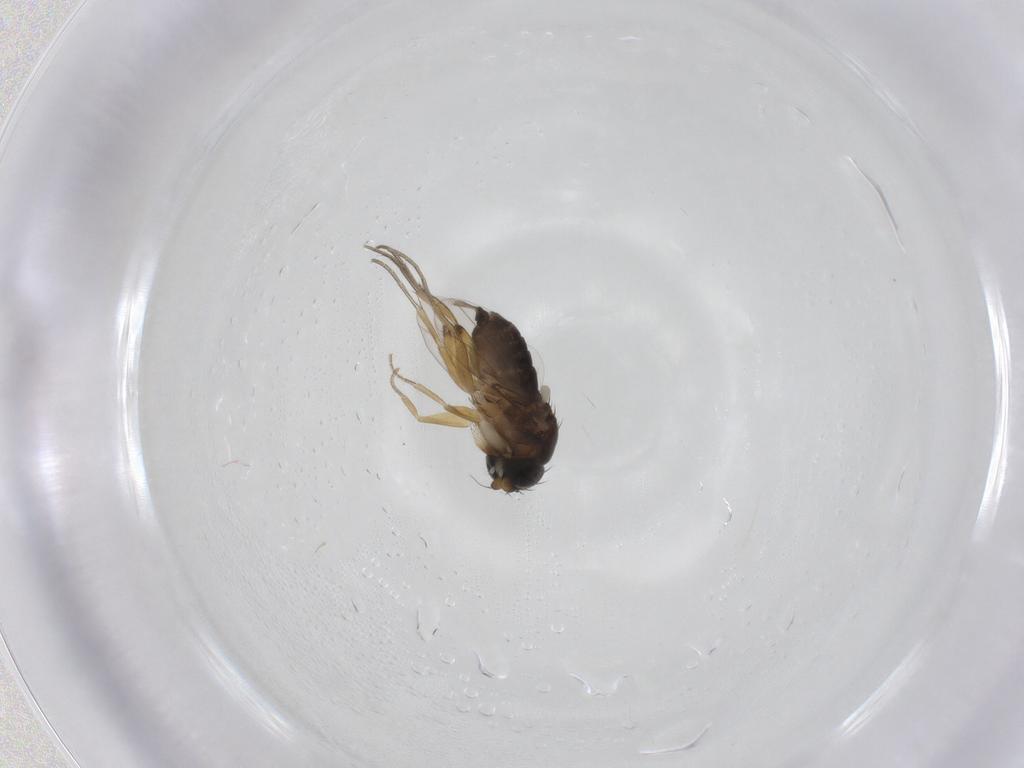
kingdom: Animalia
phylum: Arthropoda
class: Insecta
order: Diptera
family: Phoridae
